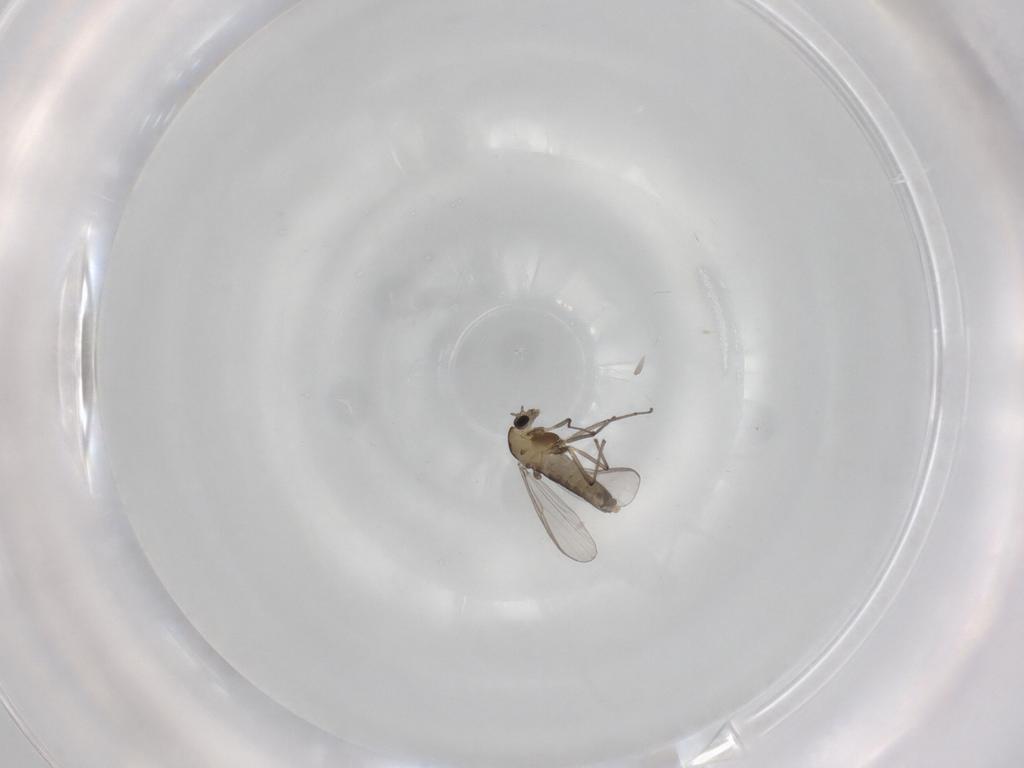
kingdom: Animalia
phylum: Arthropoda
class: Insecta
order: Diptera
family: Chironomidae
